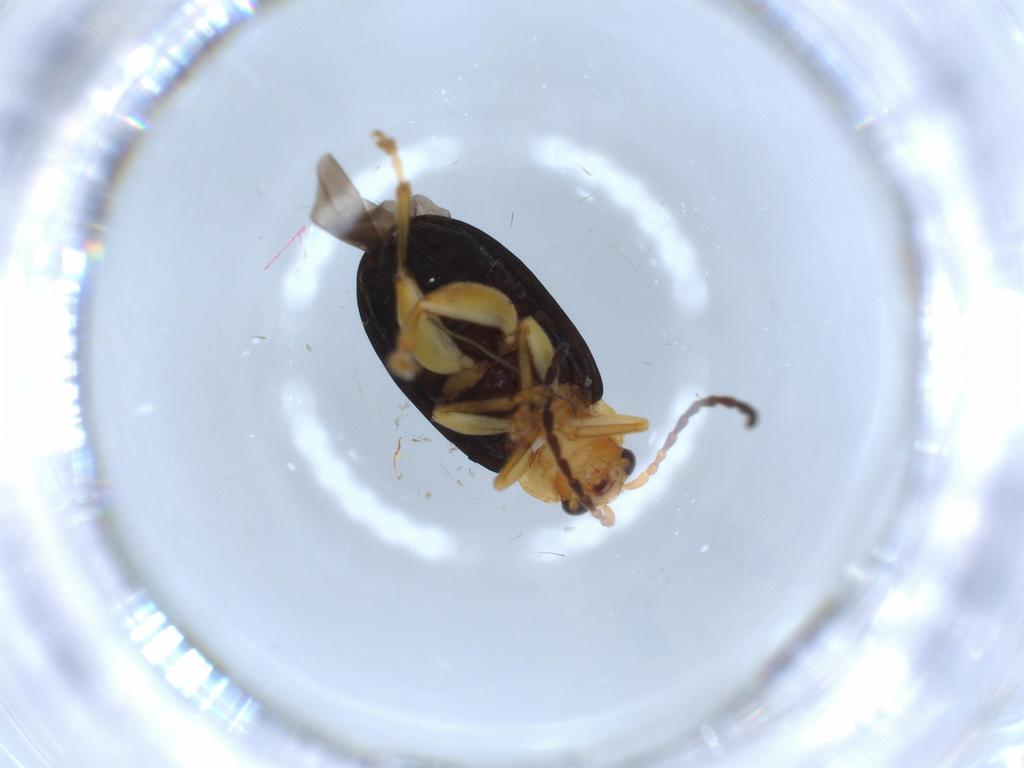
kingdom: Animalia
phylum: Arthropoda
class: Insecta
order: Coleoptera
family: Chrysomelidae
